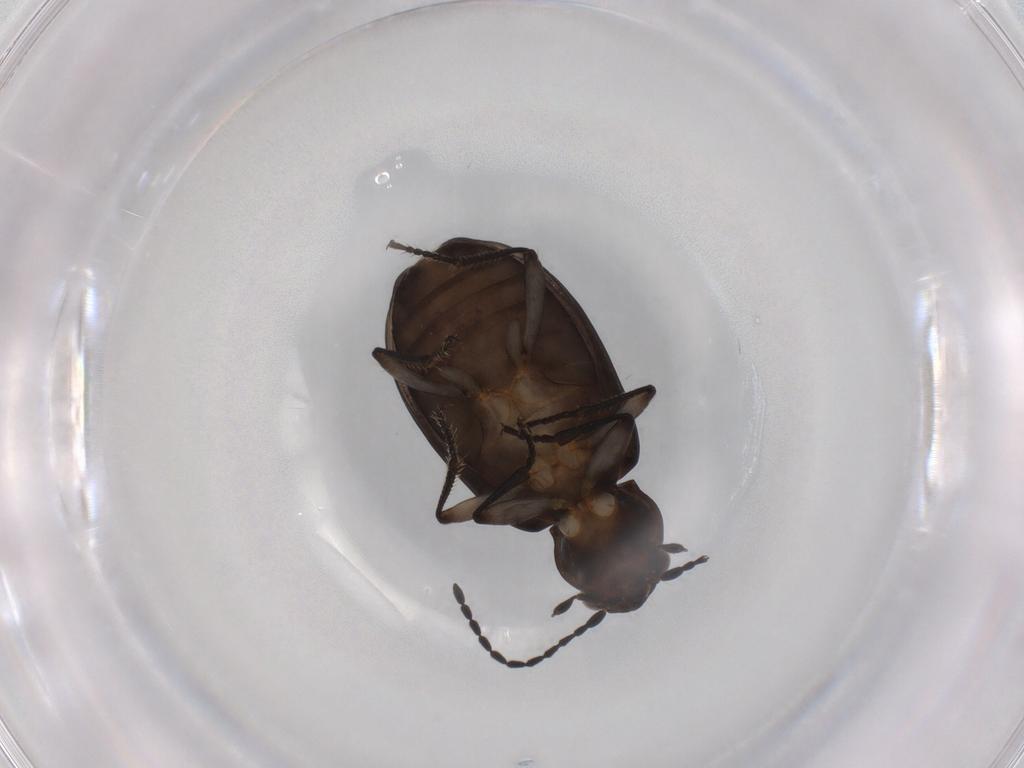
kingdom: Animalia
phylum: Arthropoda
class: Insecta
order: Coleoptera
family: Carabidae
